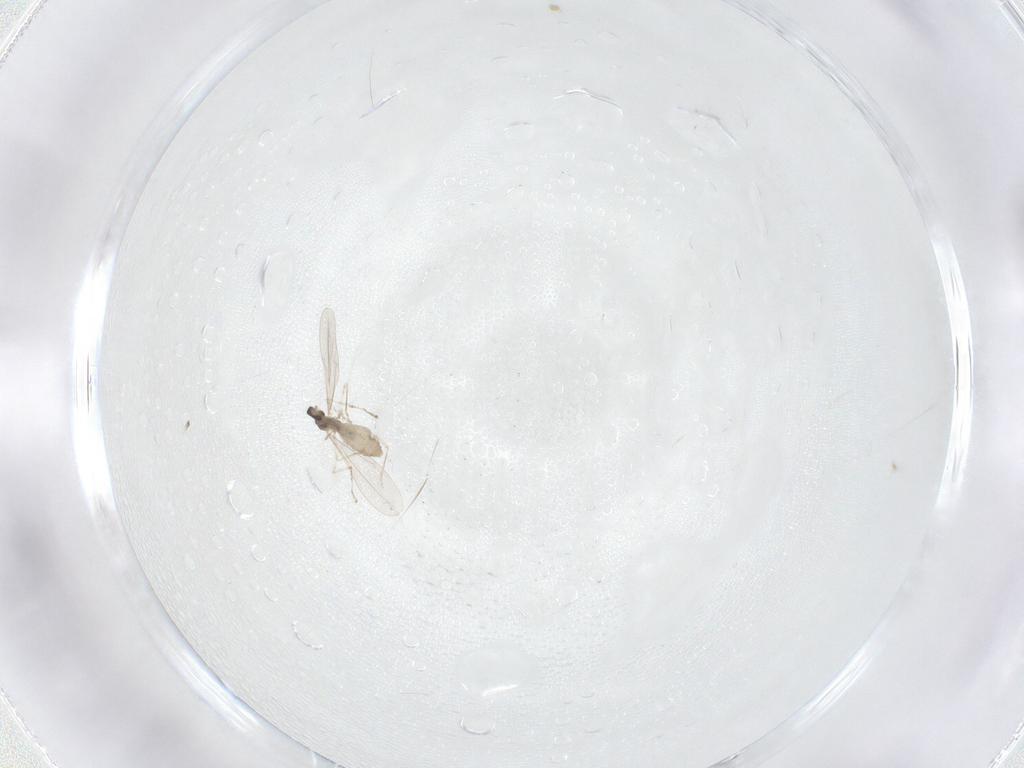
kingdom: Animalia
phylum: Arthropoda
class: Insecta
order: Diptera
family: Cecidomyiidae
